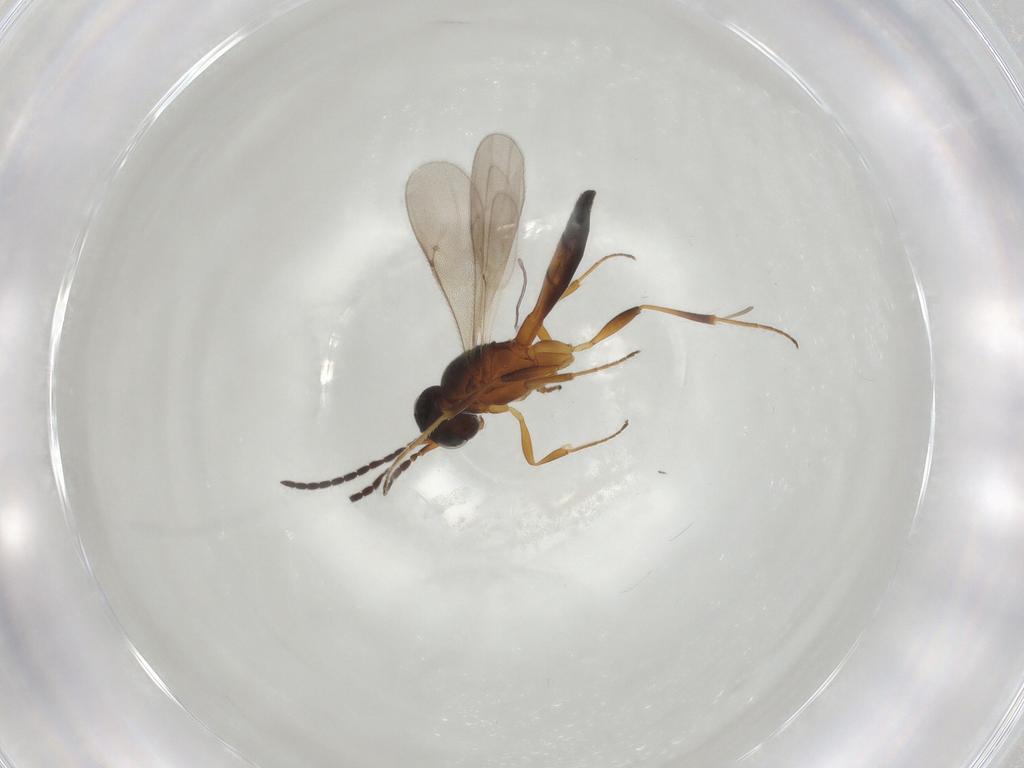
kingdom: Animalia
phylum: Arthropoda
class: Insecta
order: Hymenoptera
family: Scelionidae
